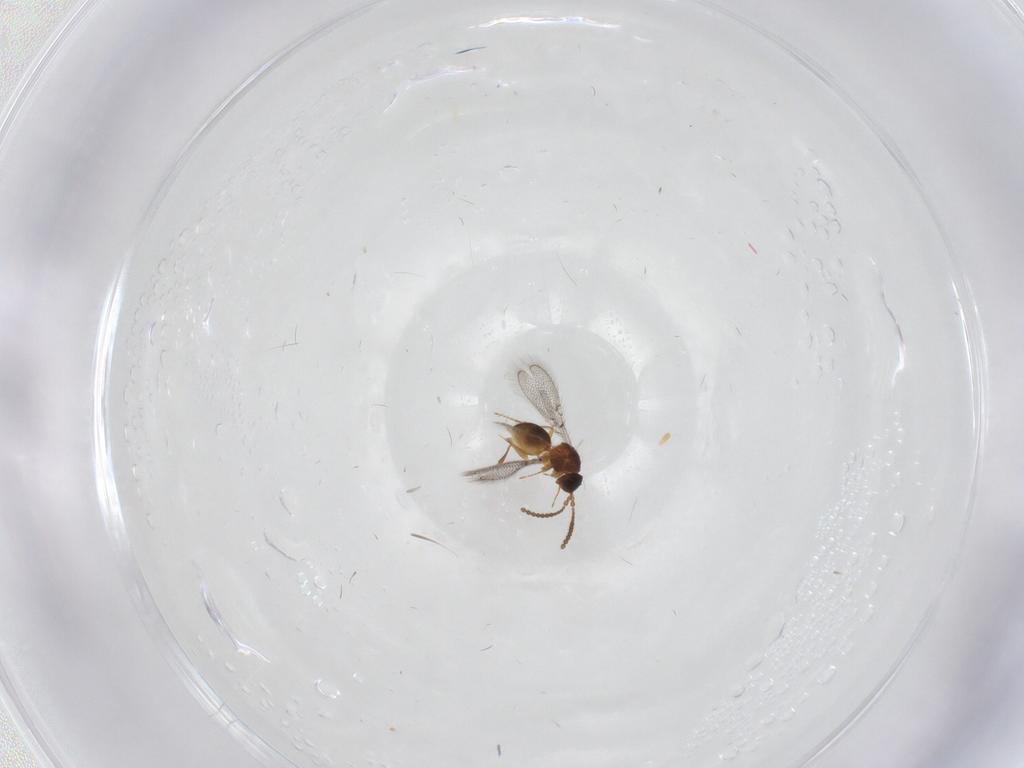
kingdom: Animalia
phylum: Arthropoda
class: Insecta
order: Hymenoptera
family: Figitidae
